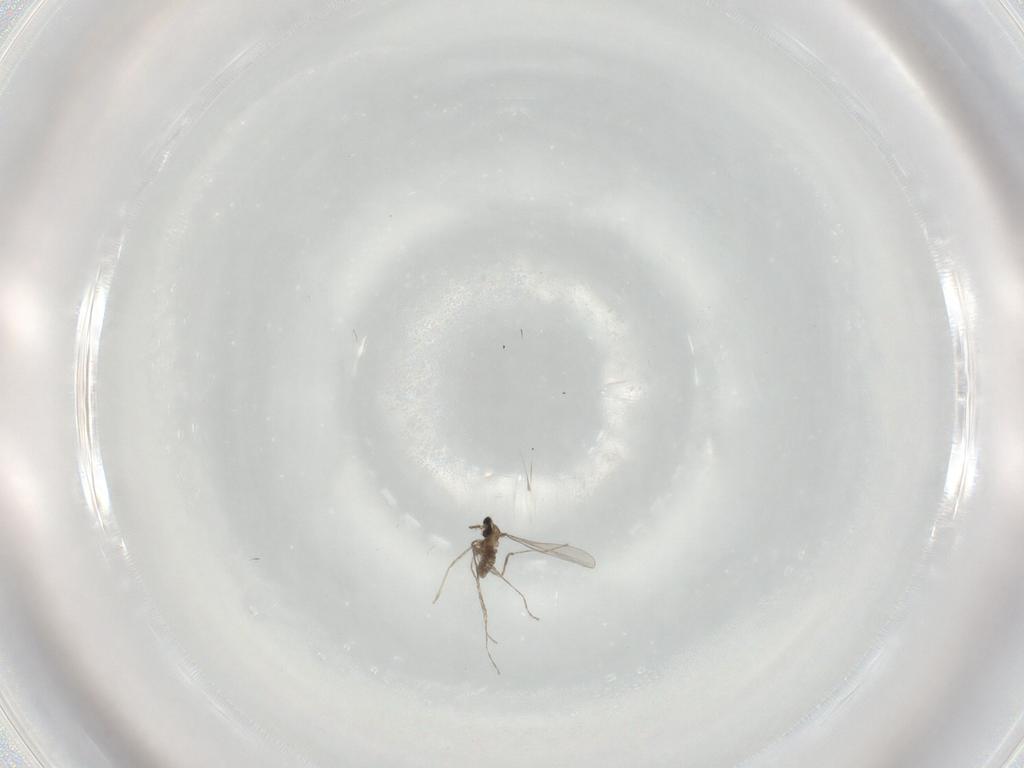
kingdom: Animalia
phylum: Arthropoda
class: Insecta
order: Diptera
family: Cecidomyiidae
